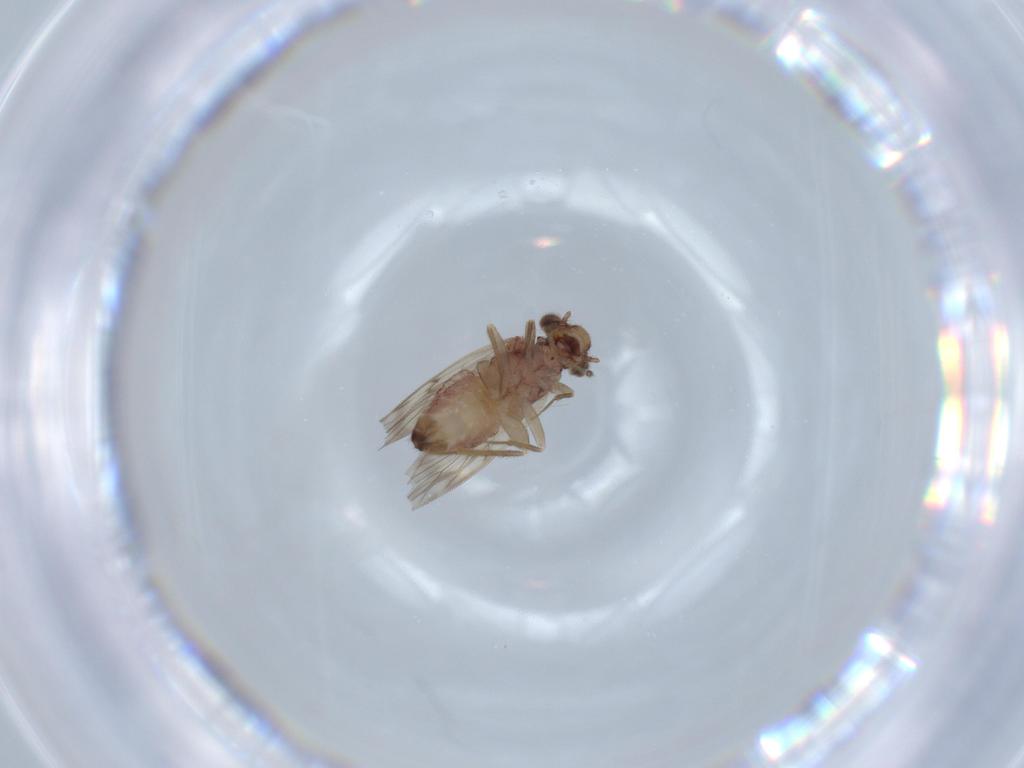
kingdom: Animalia
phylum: Arthropoda
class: Insecta
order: Psocodea
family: Lepidopsocidae
